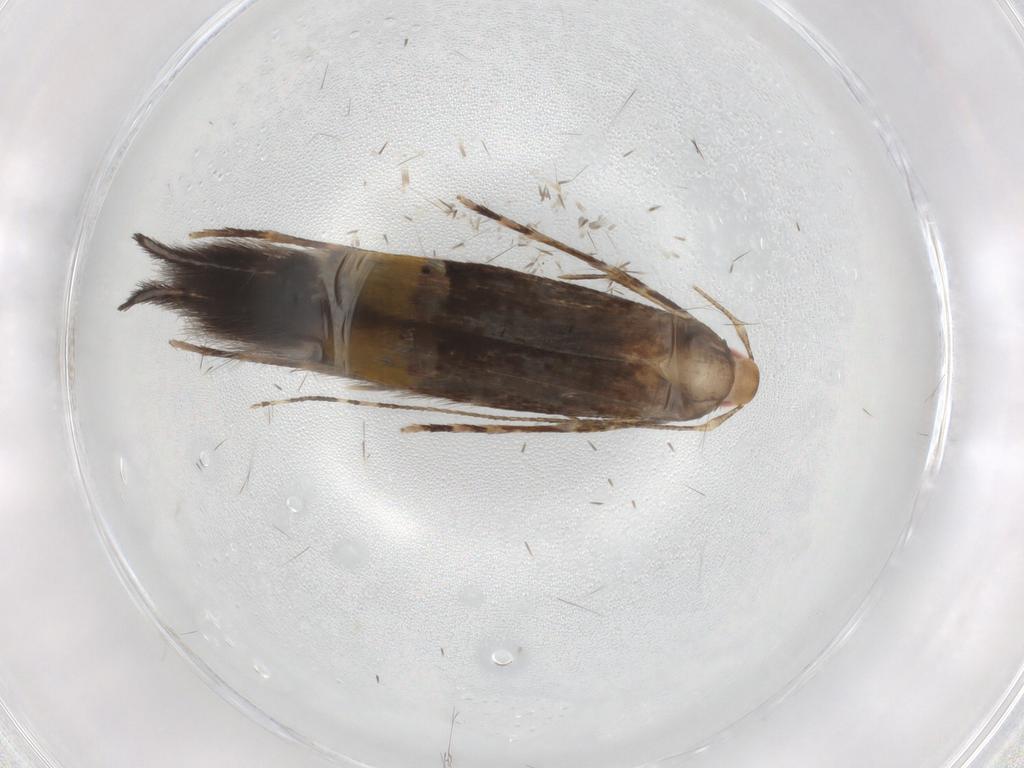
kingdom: Animalia
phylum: Arthropoda
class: Insecta
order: Lepidoptera
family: Cosmopterigidae
